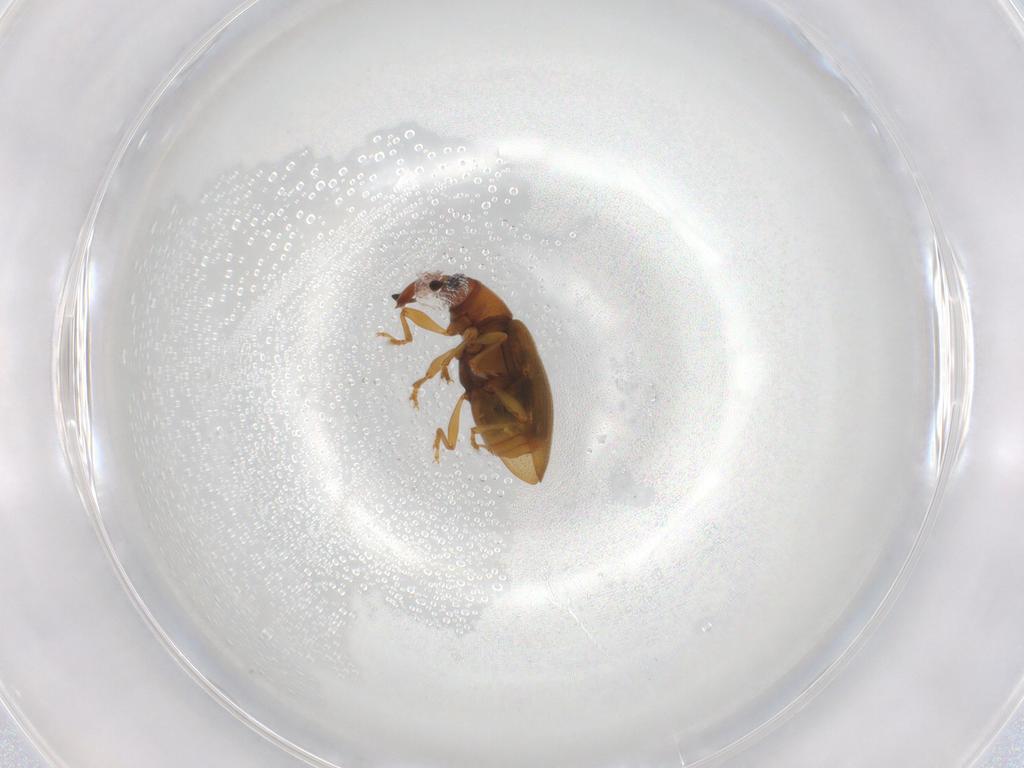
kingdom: Animalia
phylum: Arthropoda
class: Insecta
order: Coleoptera
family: Curculionidae
